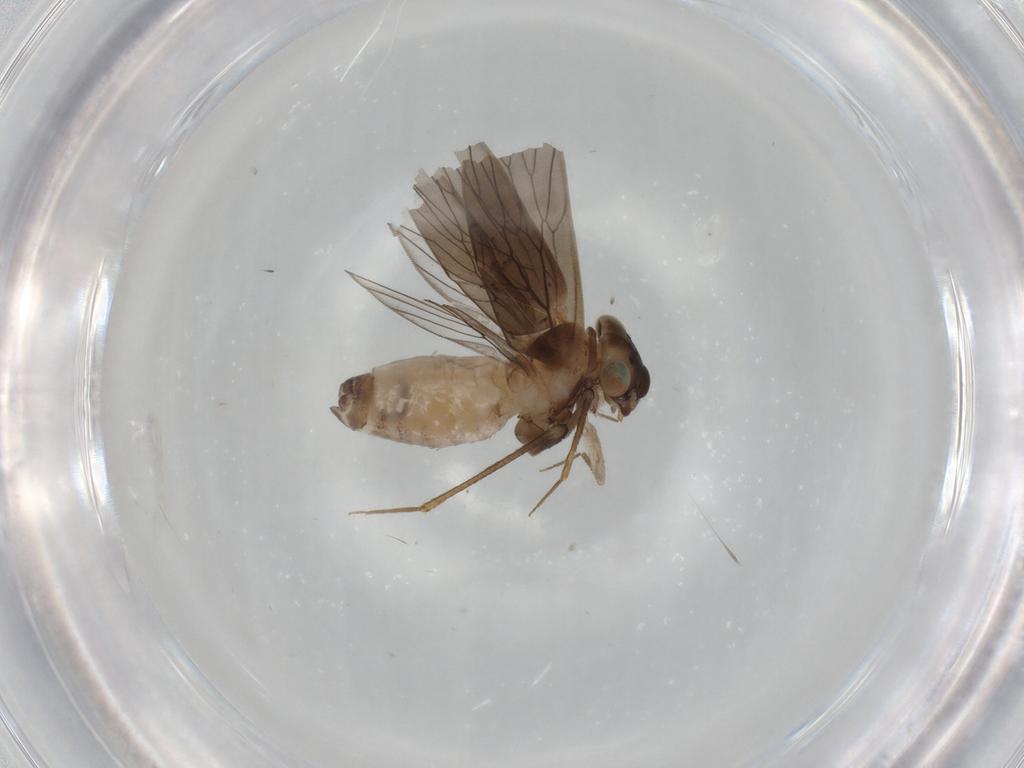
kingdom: Animalia
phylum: Arthropoda
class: Insecta
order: Psocodea
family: Lepidopsocidae
